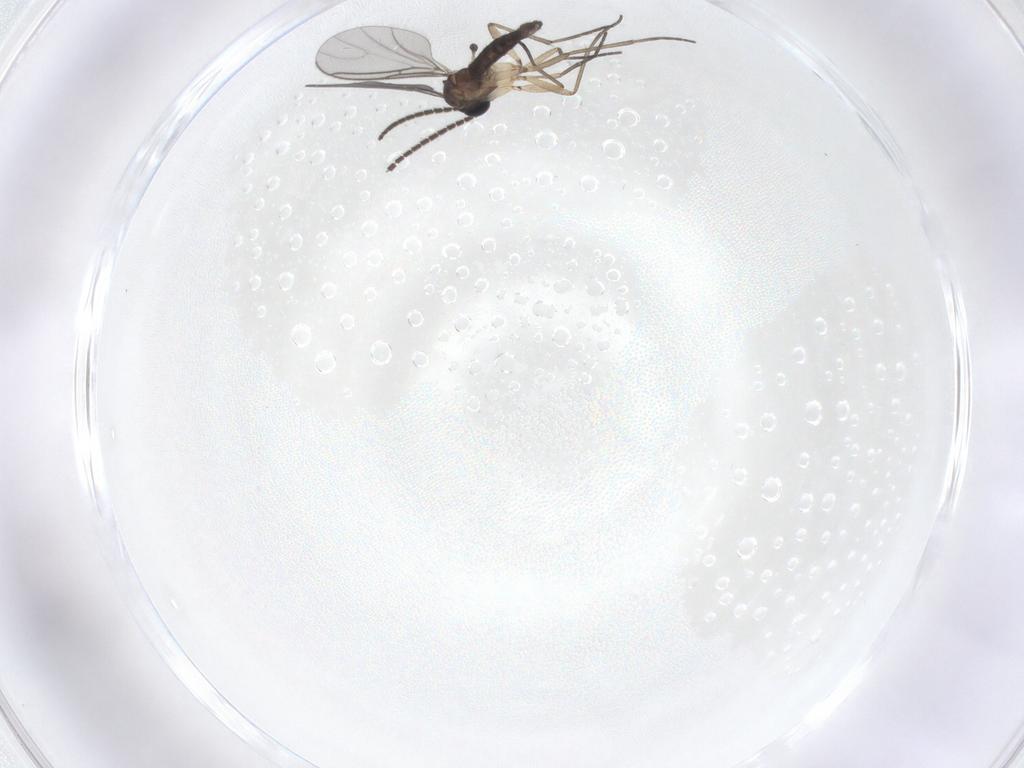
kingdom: Animalia
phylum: Arthropoda
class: Insecta
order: Diptera
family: Sciaridae
